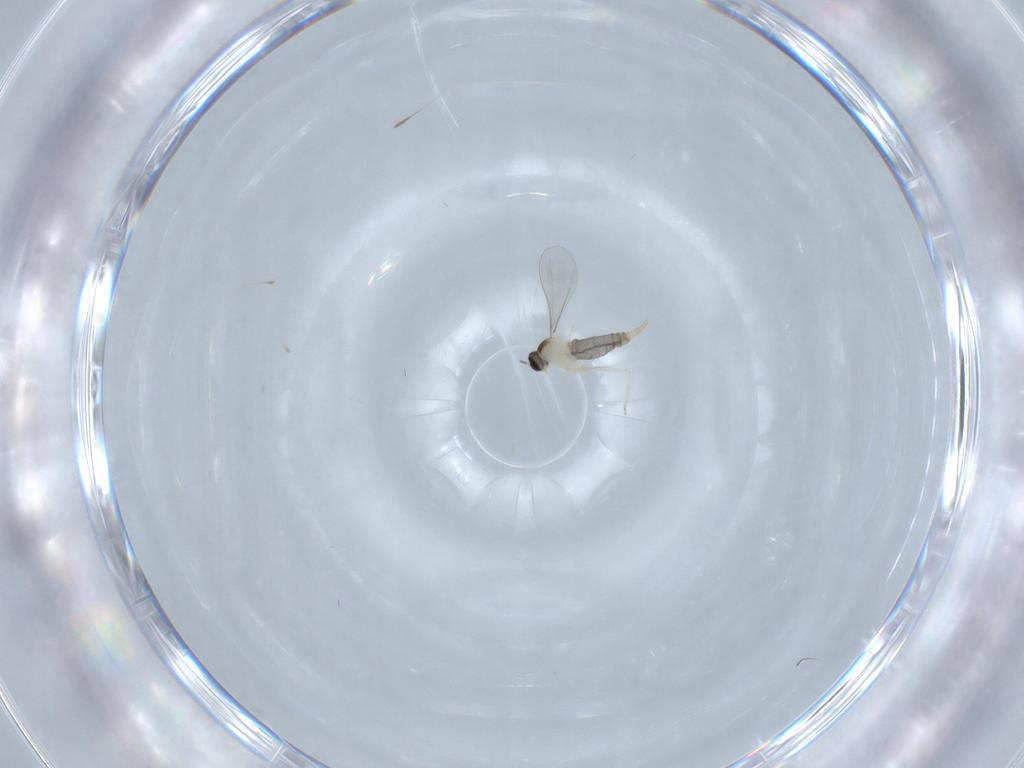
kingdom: Animalia
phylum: Arthropoda
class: Insecta
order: Diptera
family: Cecidomyiidae
